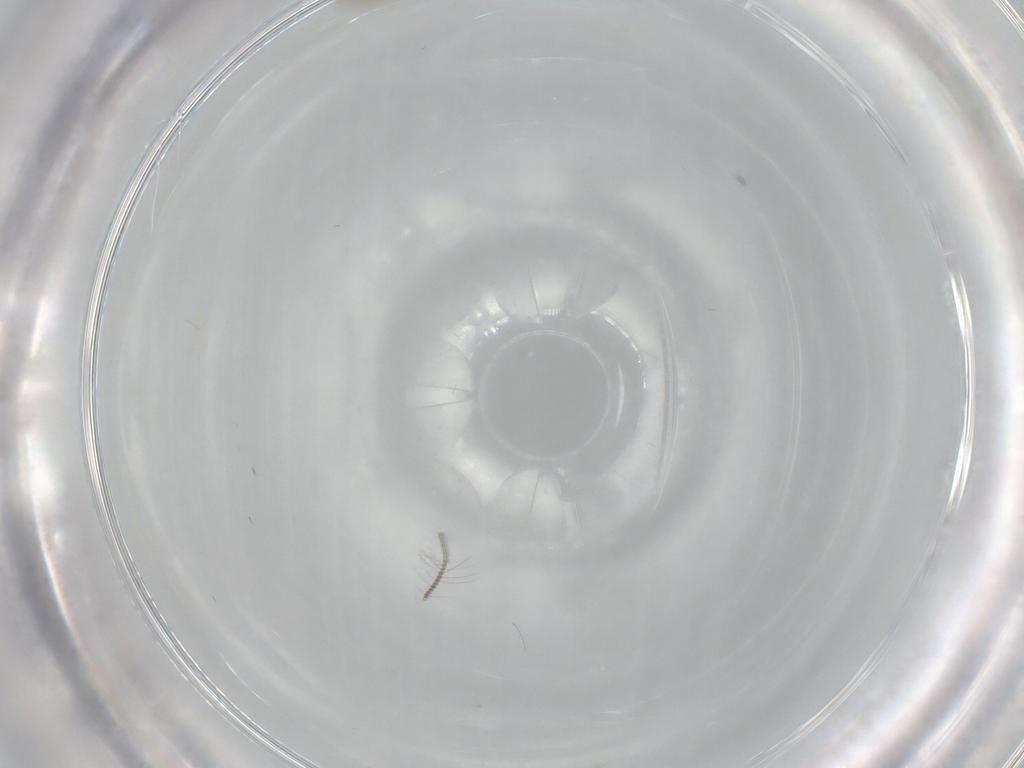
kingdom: Animalia
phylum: Arthropoda
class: Insecta
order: Diptera
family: Chironomidae
